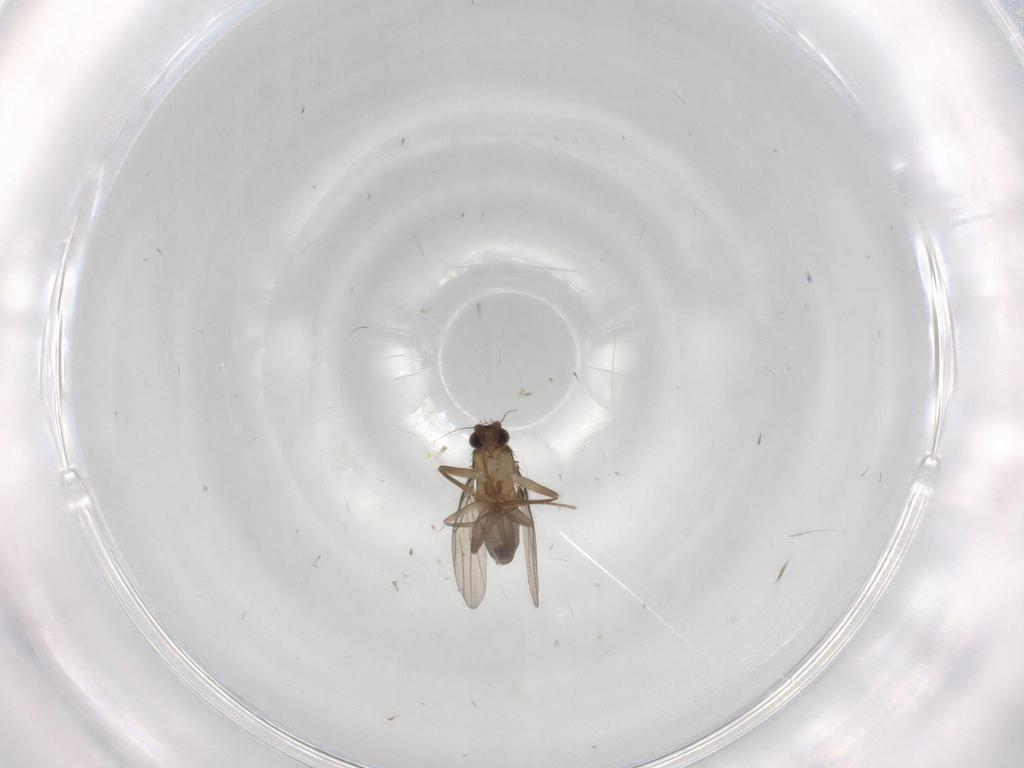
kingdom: Animalia
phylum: Arthropoda
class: Insecta
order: Diptera
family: Phoridae
